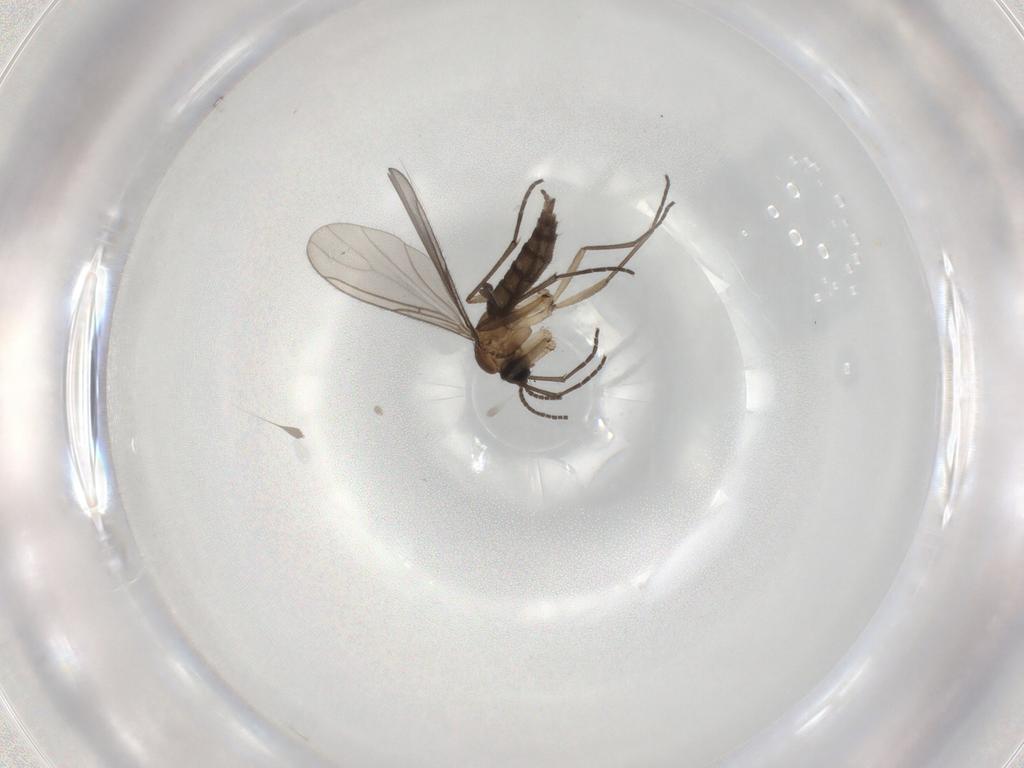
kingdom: Animalia
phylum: Arthropoda
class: Insecta
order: Diptera
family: Sciaridae
